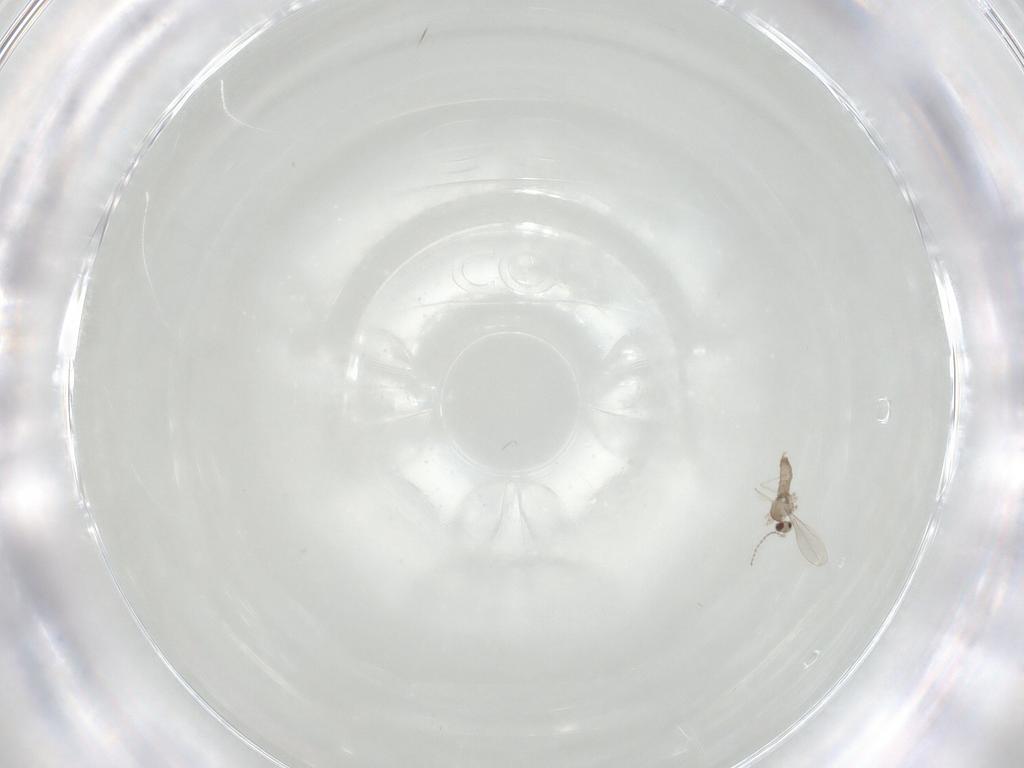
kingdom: Animalia
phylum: Arthropoda
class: Insecta
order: Diptera
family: Cecidomyiidae
